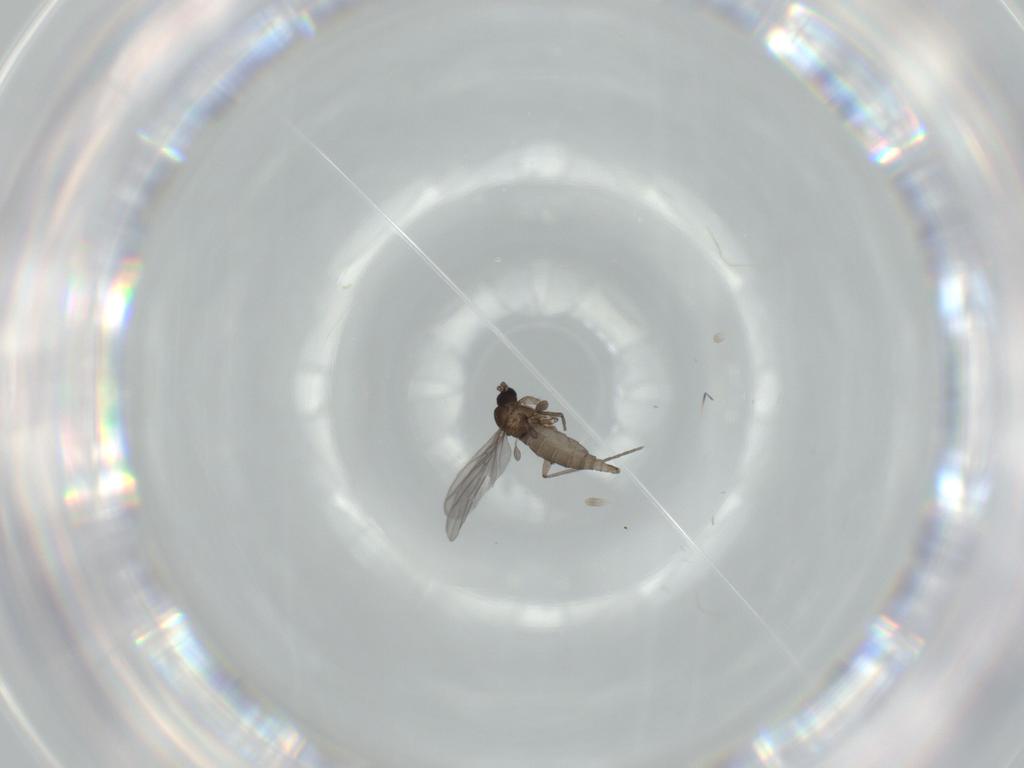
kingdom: Animalia
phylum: Arthropoda
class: Insecta
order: Diptera
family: Sciaridae
